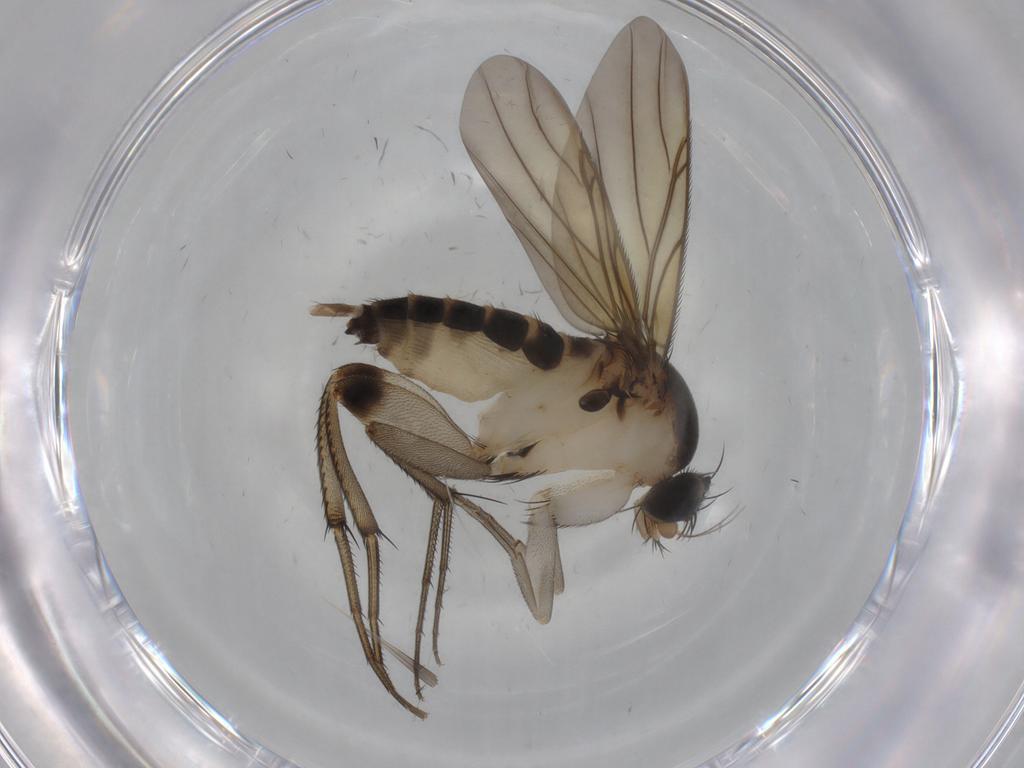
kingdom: Animalia
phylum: Arthropoda
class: Insecta
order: Diptera
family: Phoridae
